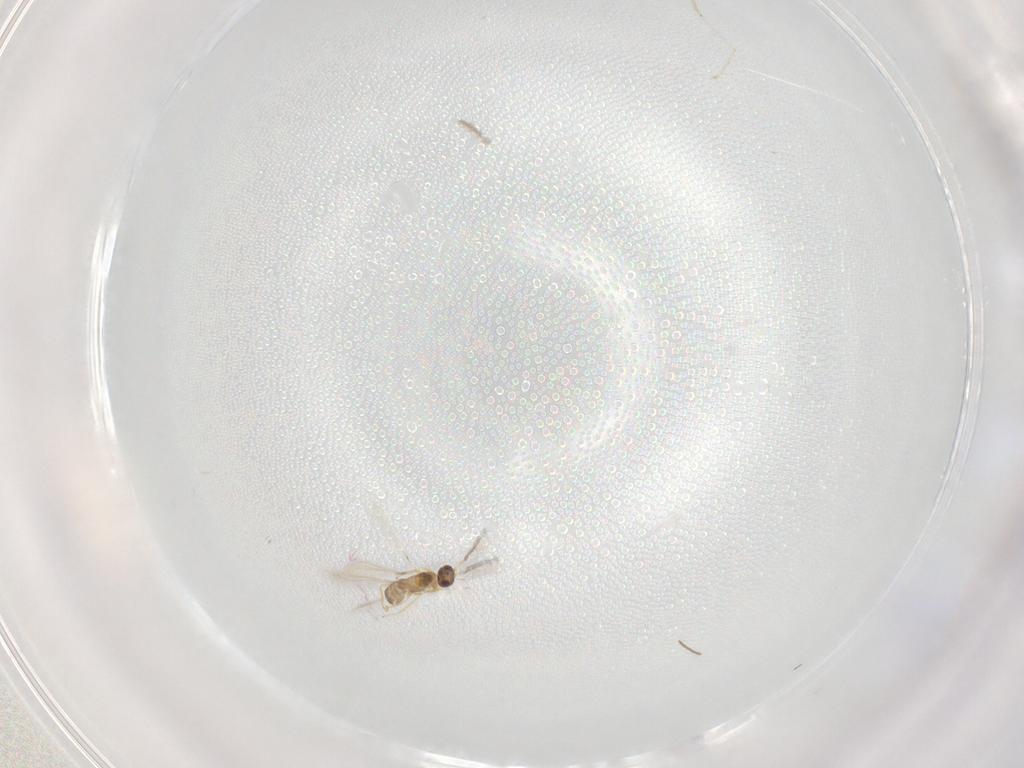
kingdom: Animalia
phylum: Arthropoda
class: Insecta
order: Hymenoptera
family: Mymaridae
